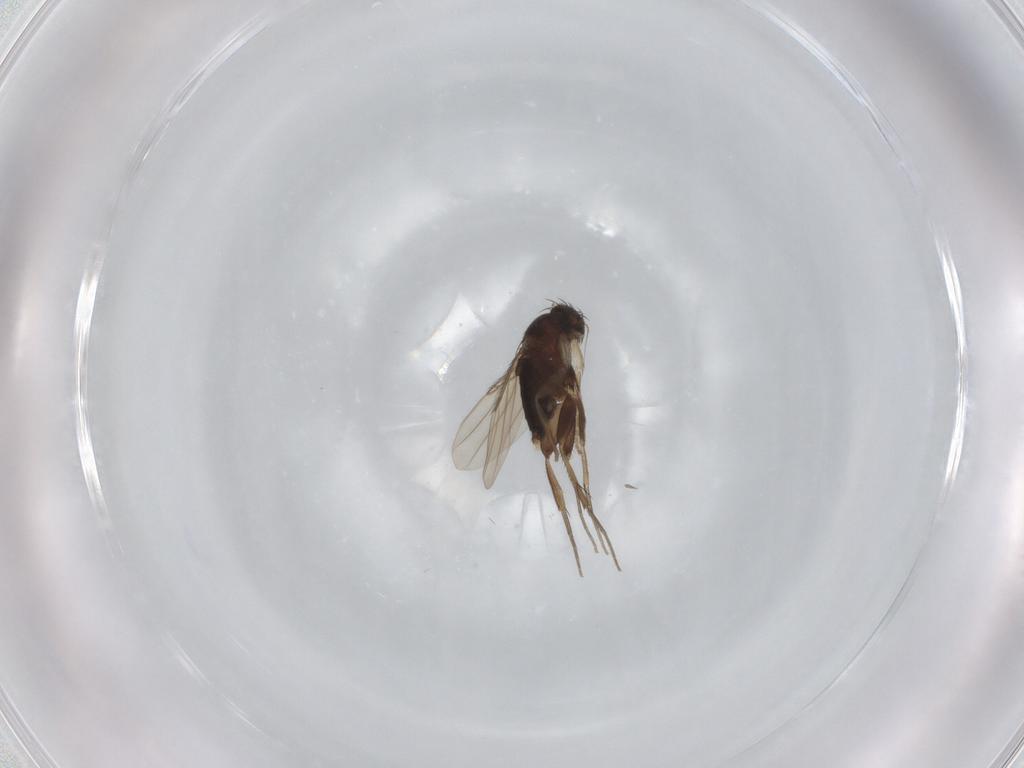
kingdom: Animalia
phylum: Arthropoda
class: Insecta
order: Diptera
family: Phoridae
